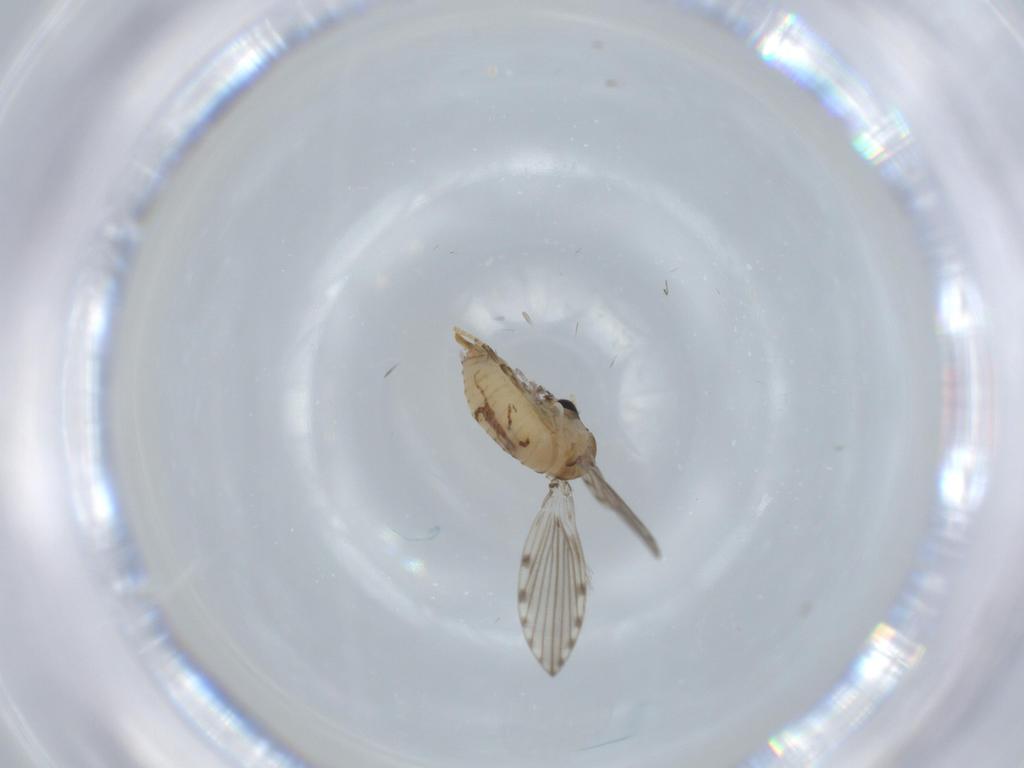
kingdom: Animalia
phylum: Arthropoda
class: Insecta
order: Diptera
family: Psychodidae
